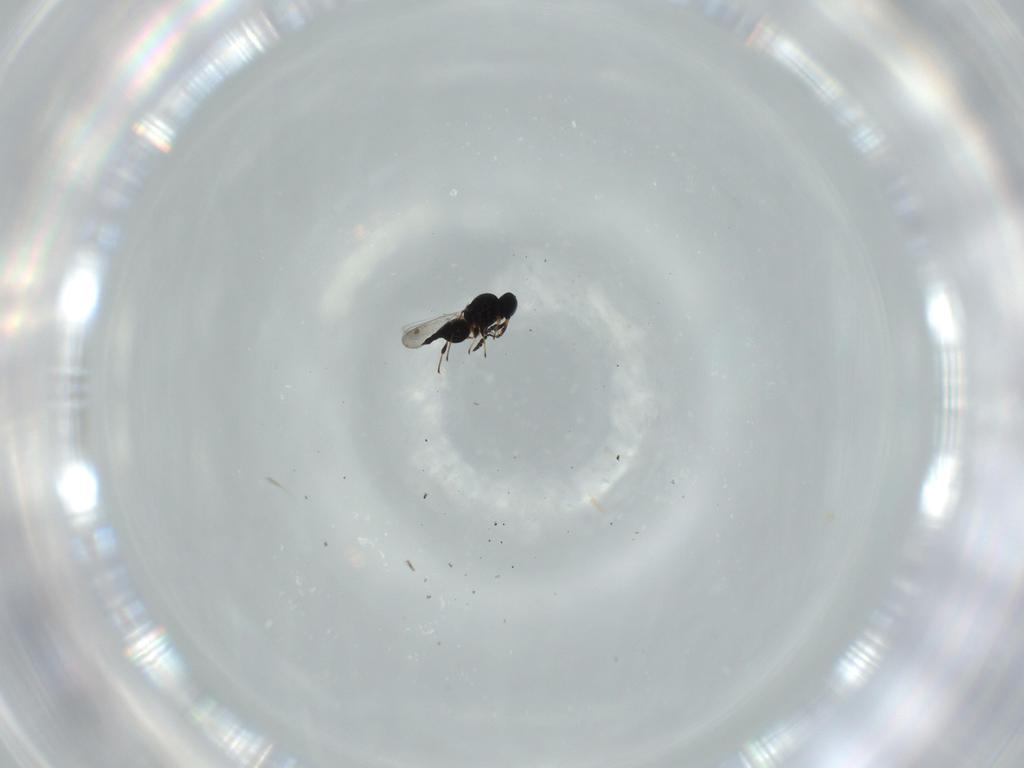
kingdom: Animalia
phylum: Arthropoda
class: Insecta
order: Hymenoptera
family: Platygastridae
